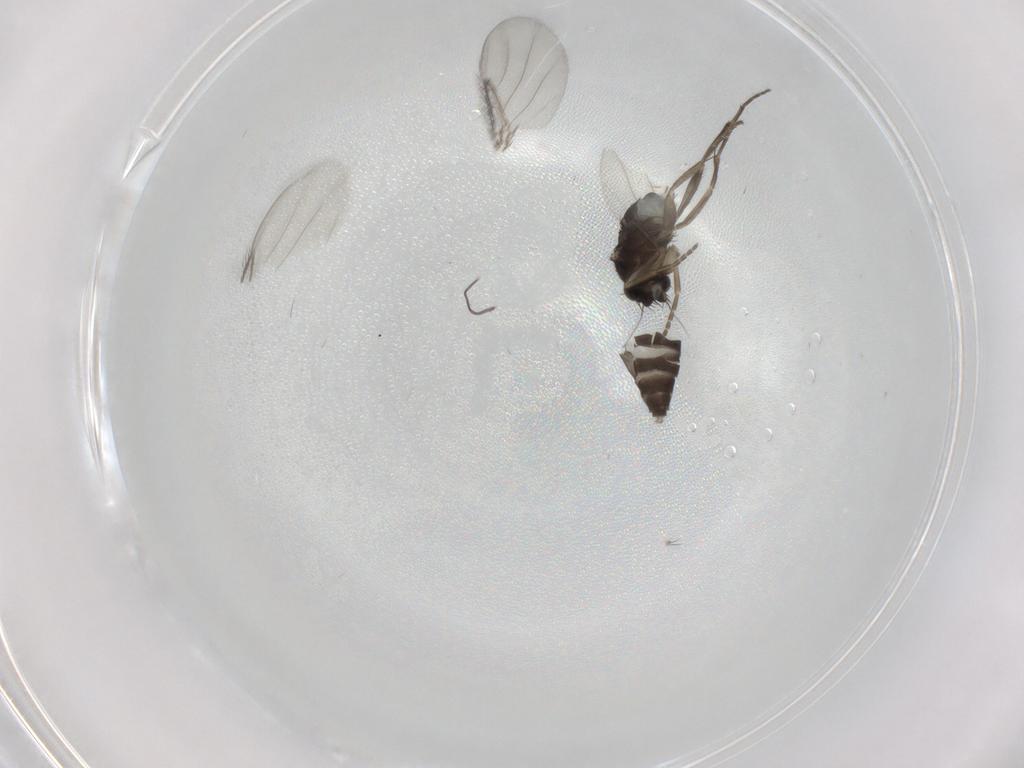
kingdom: Animalia
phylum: Arthropoda
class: Insecta
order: Diptera
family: Phoridae
